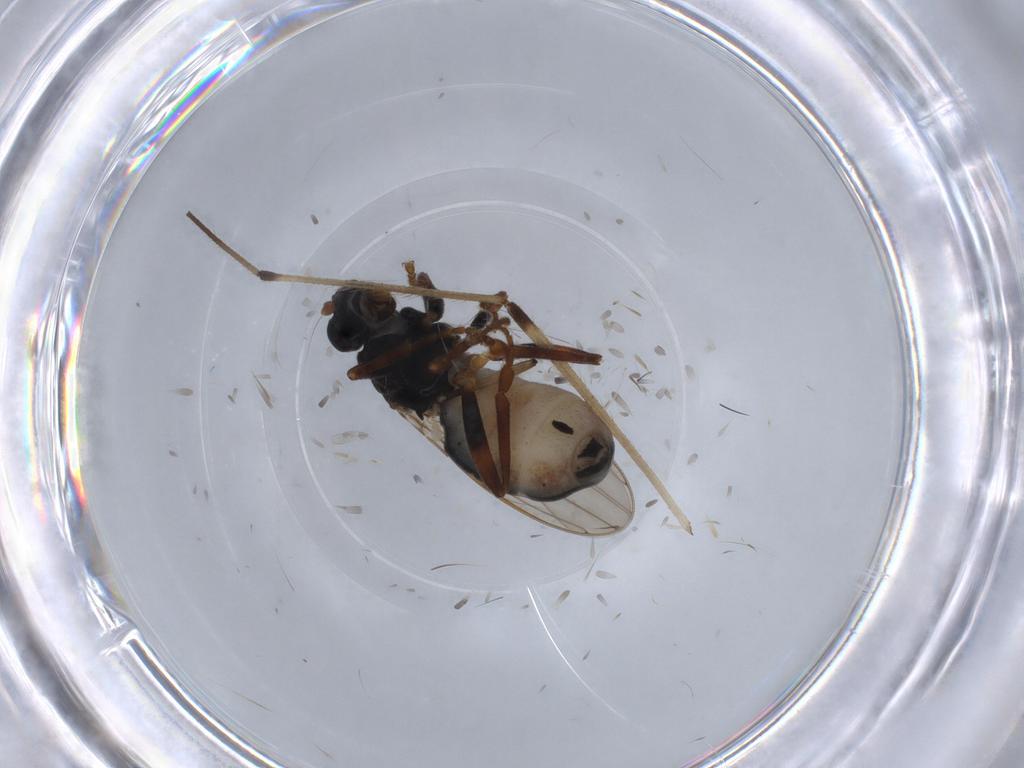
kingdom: Animalia
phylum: Arthropoda
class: Insecta
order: Diptera
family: Sphaeroceridae
